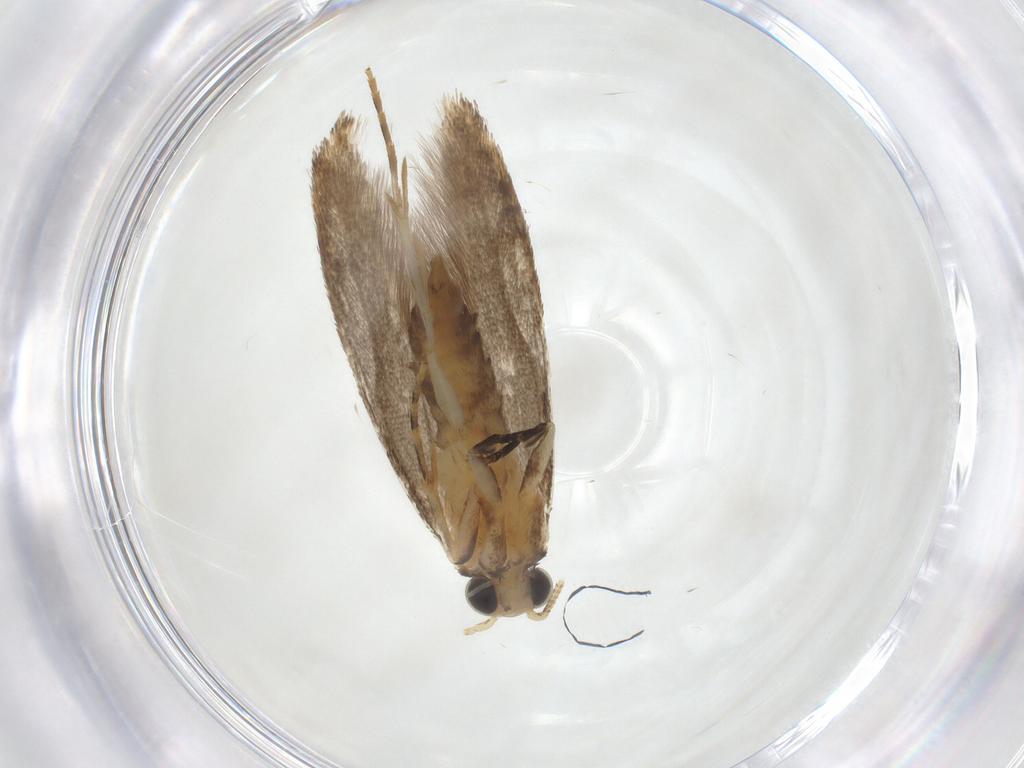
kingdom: Animalia
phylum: Arthropoda
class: Insecta
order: Lepidoptera
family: Tineidae
